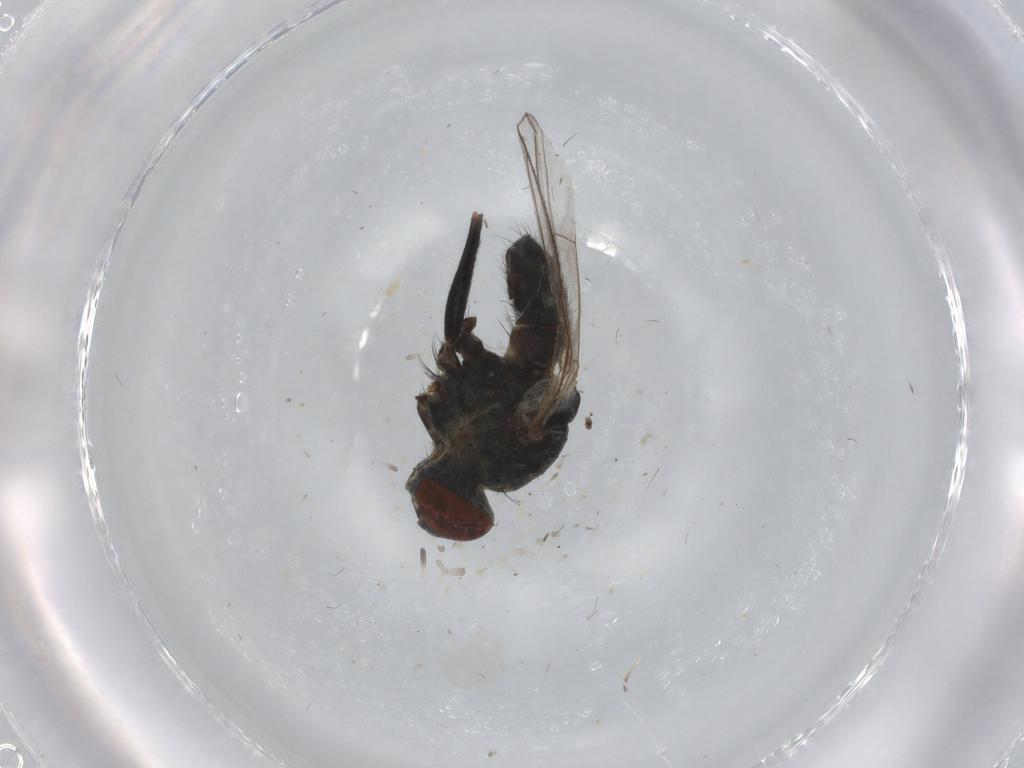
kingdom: Animalia
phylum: Arthropoda
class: Insecta
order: Diptera
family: Muscidae
